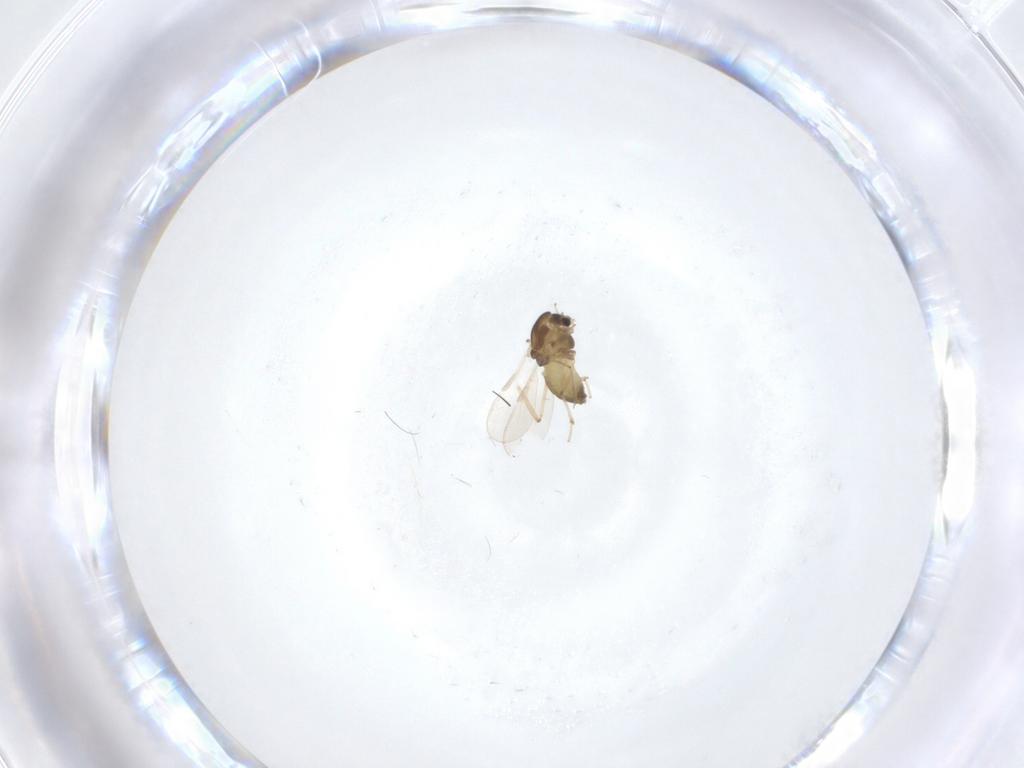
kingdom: Animalia
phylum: Arthropoda
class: Insecta
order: Diptera
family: Chironomidae
